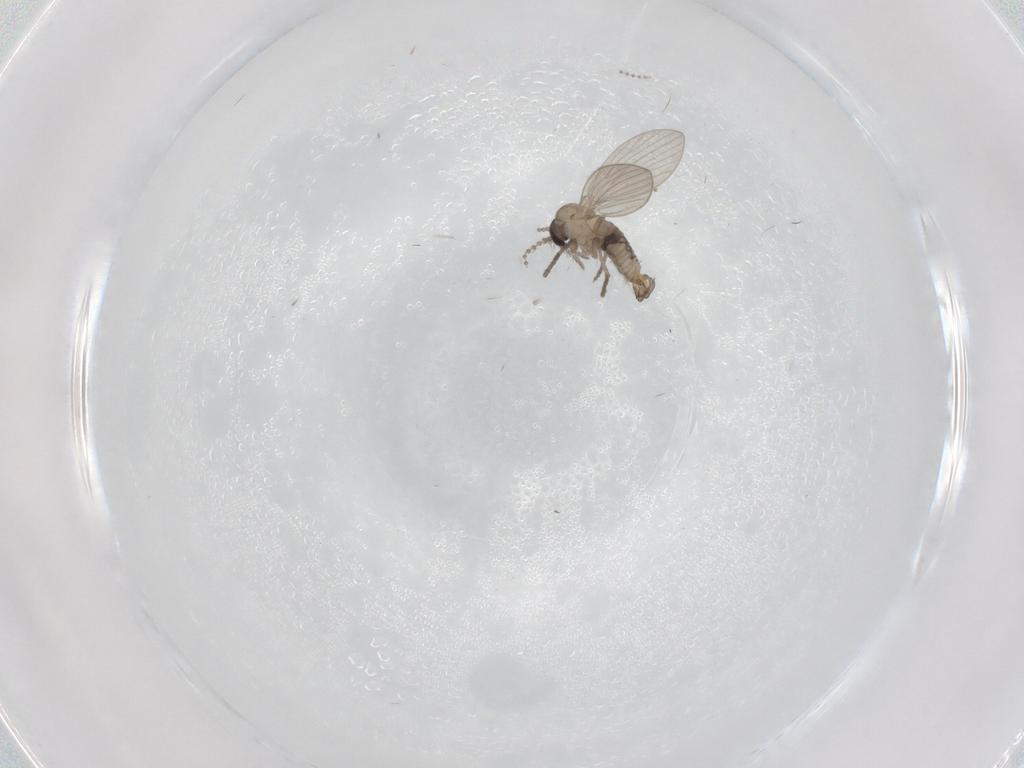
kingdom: Animalia
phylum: Arthropoda
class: Insecta
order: Diptera
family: Psychodidae
